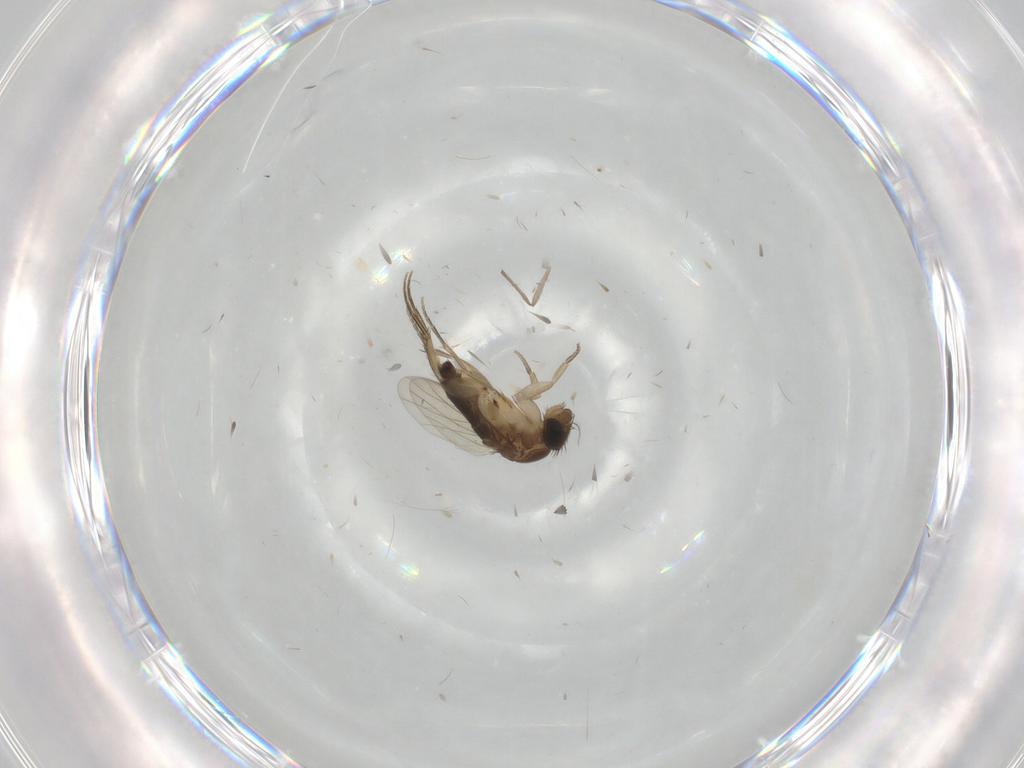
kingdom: Animalia
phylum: Arthropoda
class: Insecta
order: Diptera
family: Phoridae
